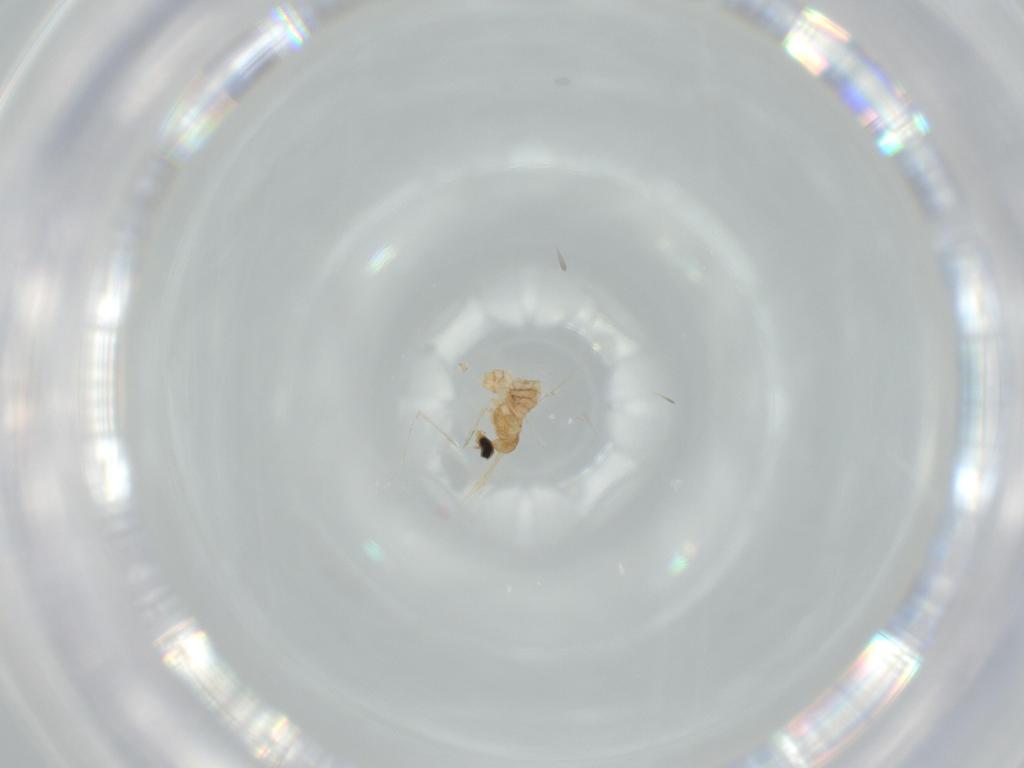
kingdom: Animalia
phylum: Arthropoda
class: Insecta
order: Diptera
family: Cecidomyiidae
